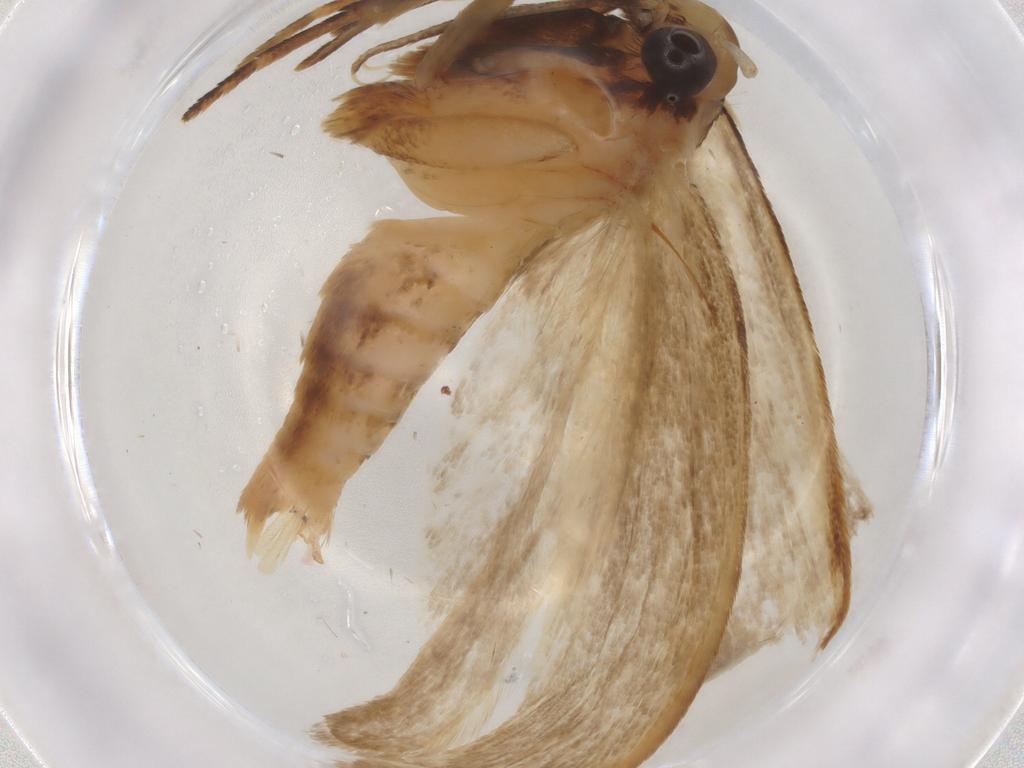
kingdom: Animalia
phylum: Arthropoda
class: Insecta
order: Lepidoptera
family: Gelechiidae
